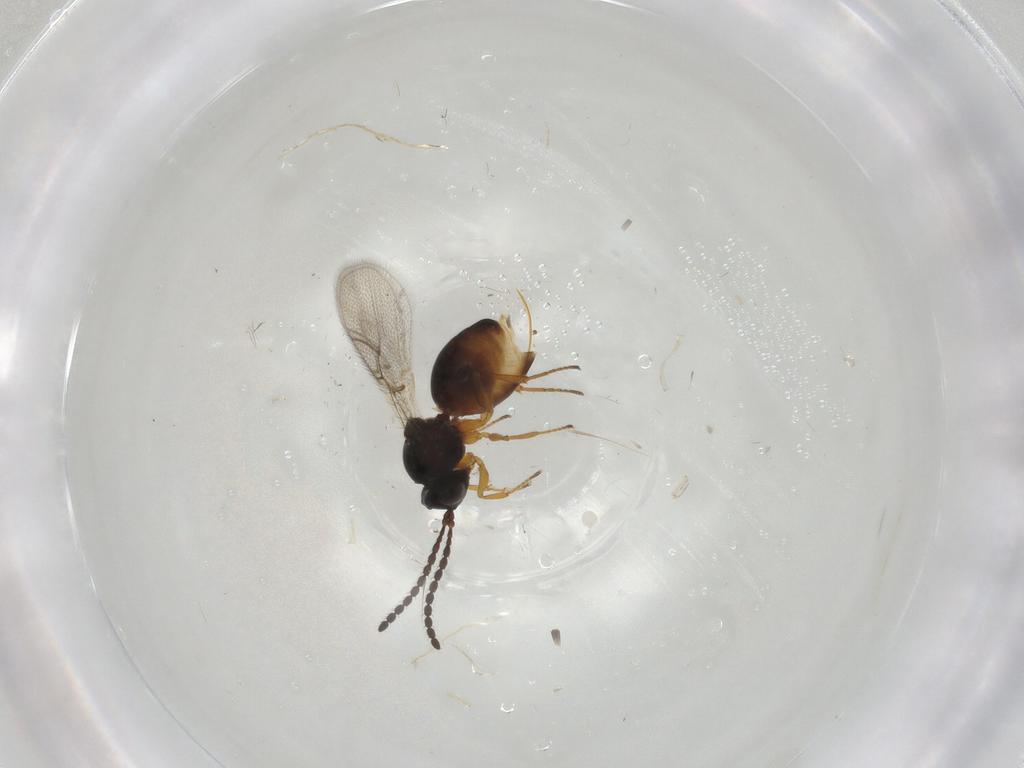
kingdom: Animalia
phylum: Arthropoda
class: Insecta
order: Hymenoptera
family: Figitidae
